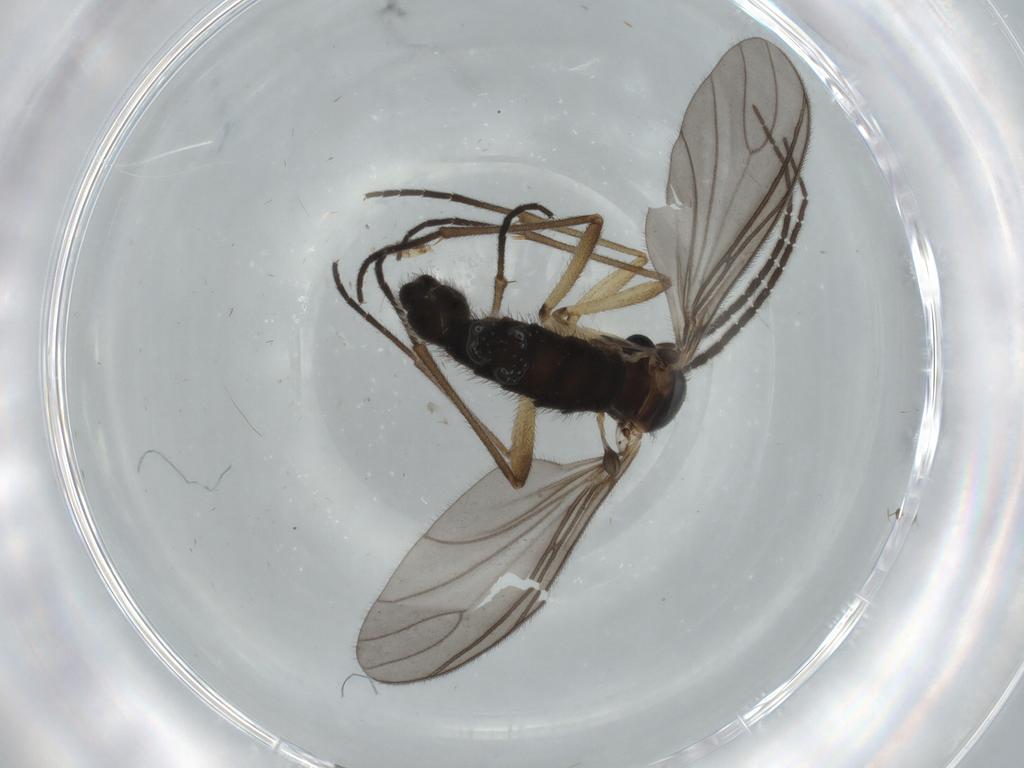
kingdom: Animalia
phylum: Arthropoda
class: Insecta
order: Diptera
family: Sciaridae
